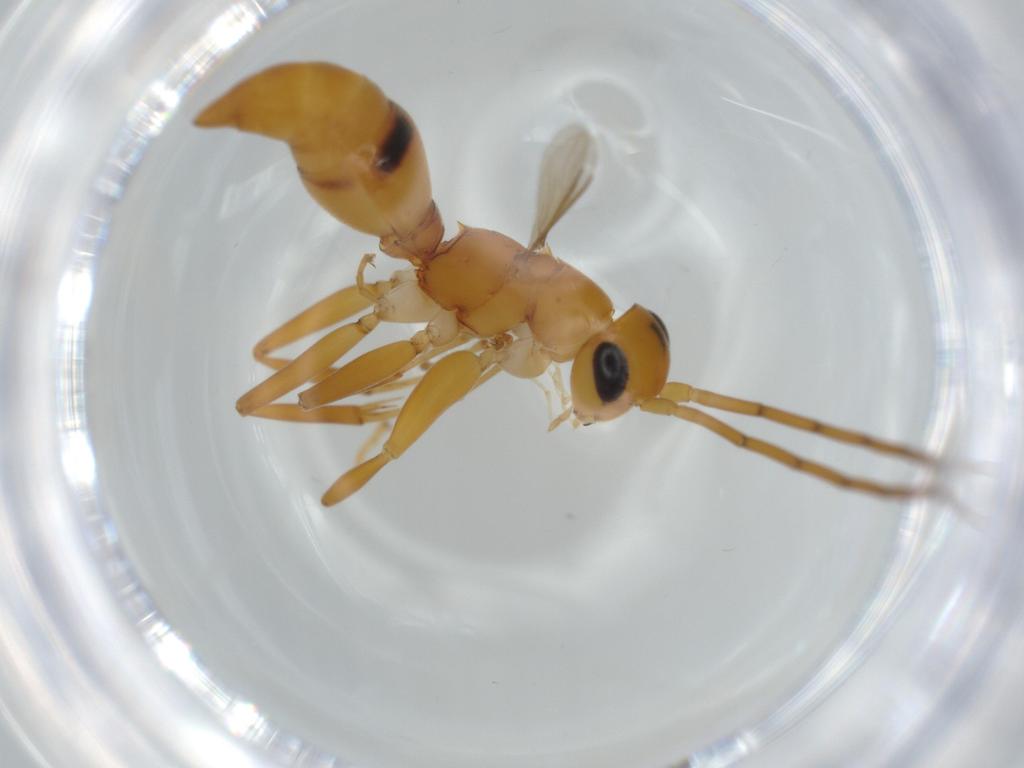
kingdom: Animalia
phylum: Arthropoda
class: Insecta
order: Hymenoptera
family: Rhopalosomatidae
